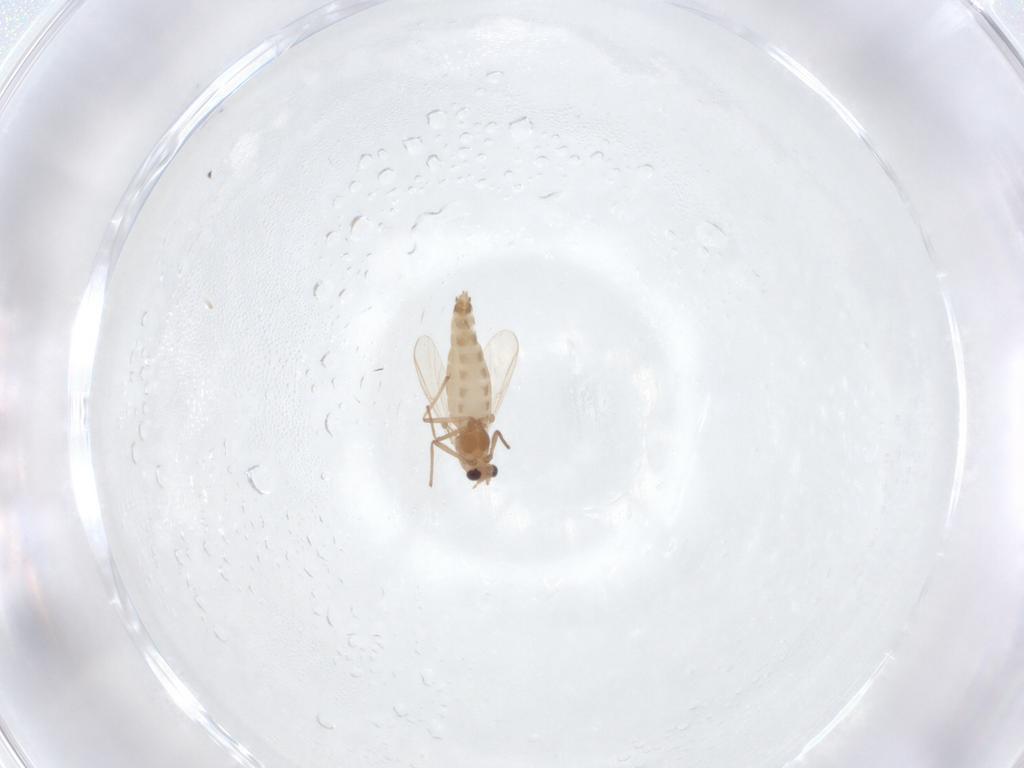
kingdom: Animalia
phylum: Arthropoda
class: Insecta
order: Diptera
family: Chironomidae
